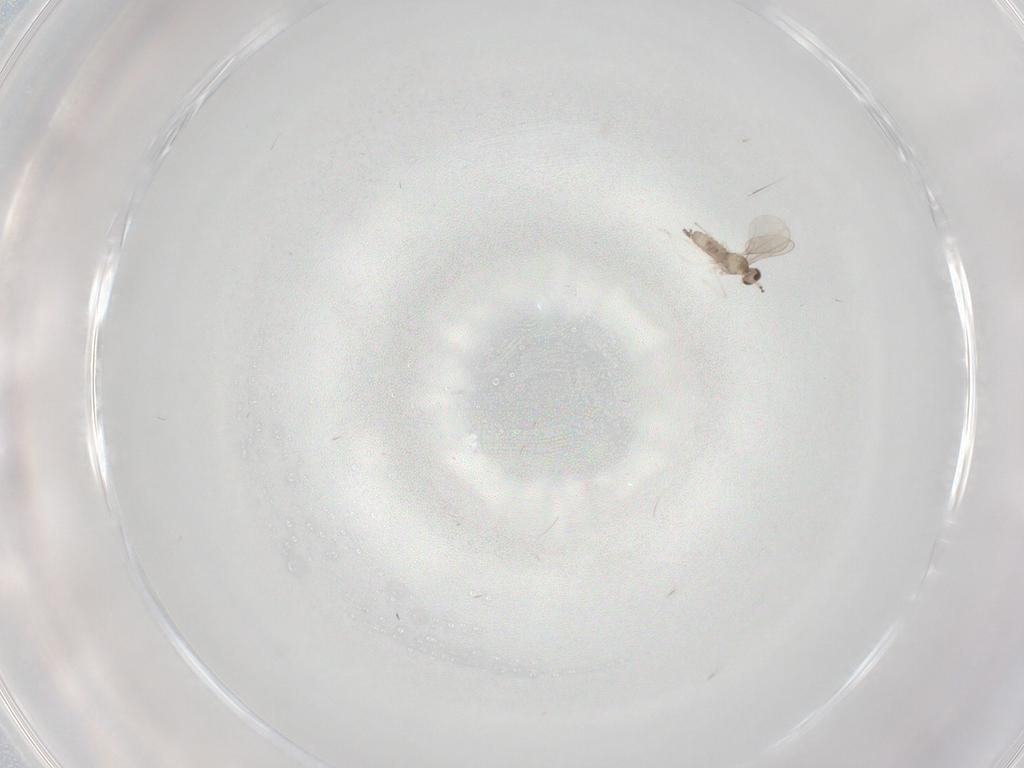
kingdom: Animalia
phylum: Arthropoda
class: Insecta
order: Diptera
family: Cecidomyiidae
